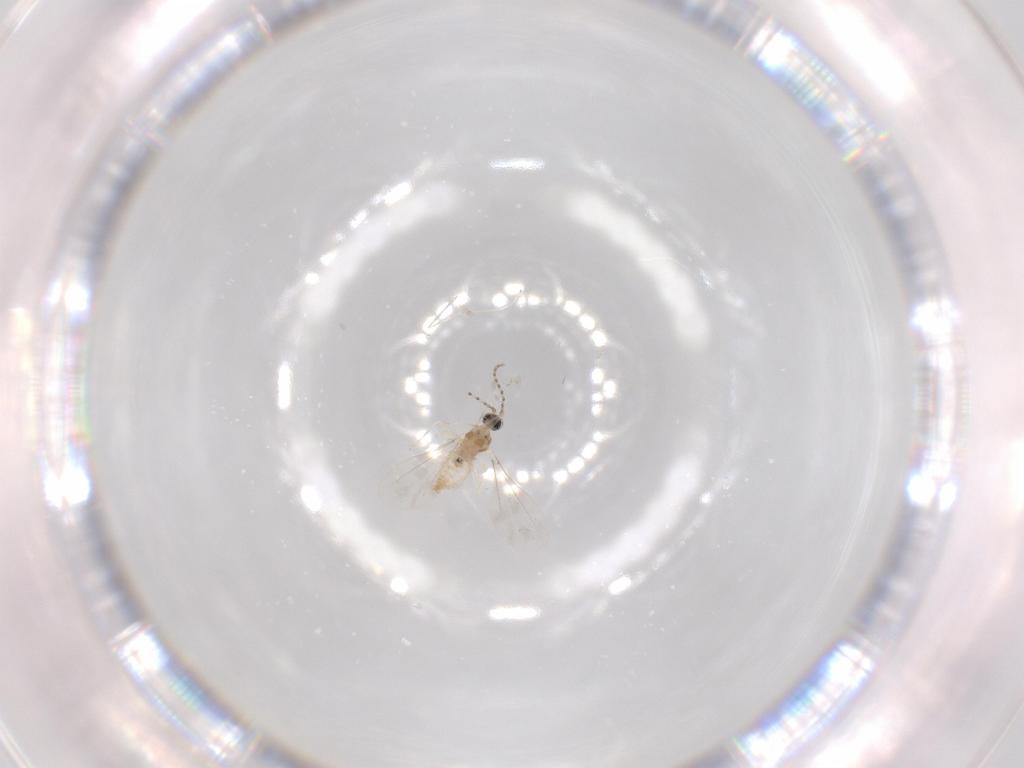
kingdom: Animalia
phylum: Arthropoda
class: Insecta
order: Diptera
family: Cecidomyiidae
